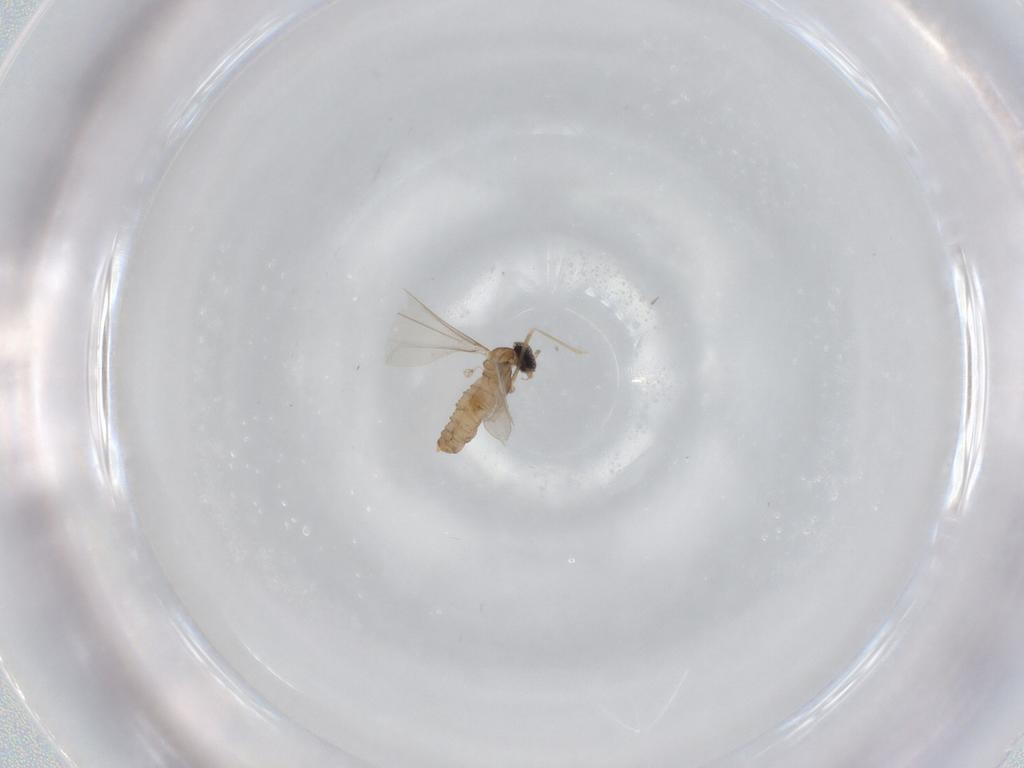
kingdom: Animalia
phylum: Arthropoda
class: Insecta
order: Diptera
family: Cecidomyiidae
